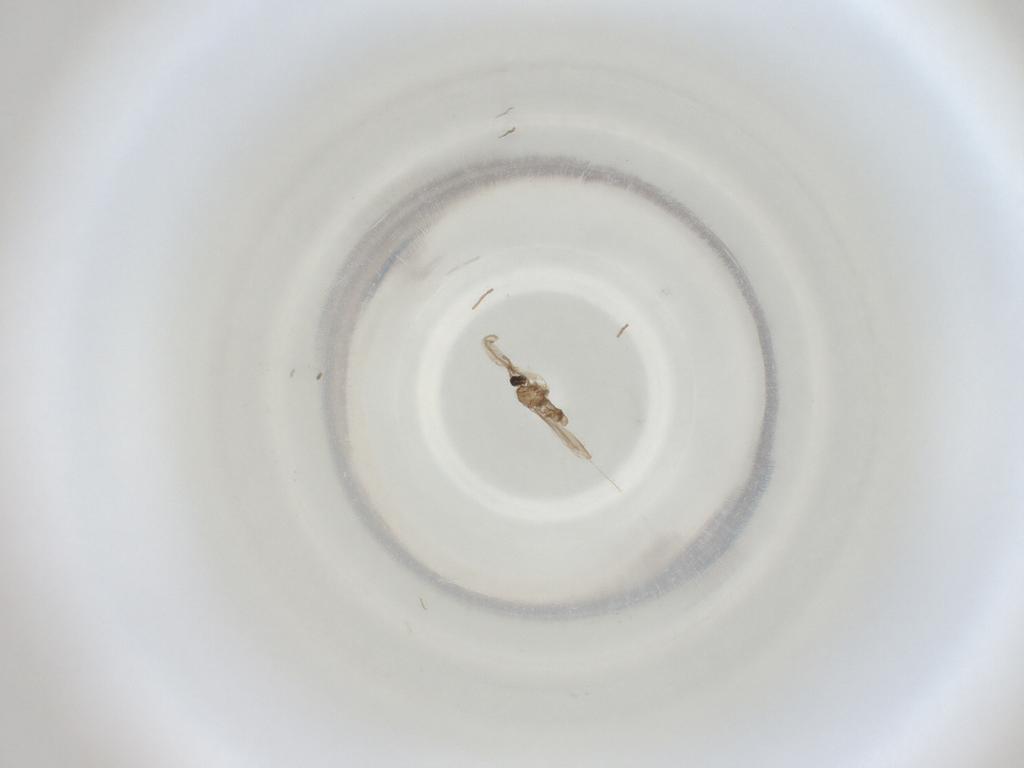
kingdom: Animalia
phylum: Arthropoda
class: Insecta
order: Diptera
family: Cecidomyiidae
